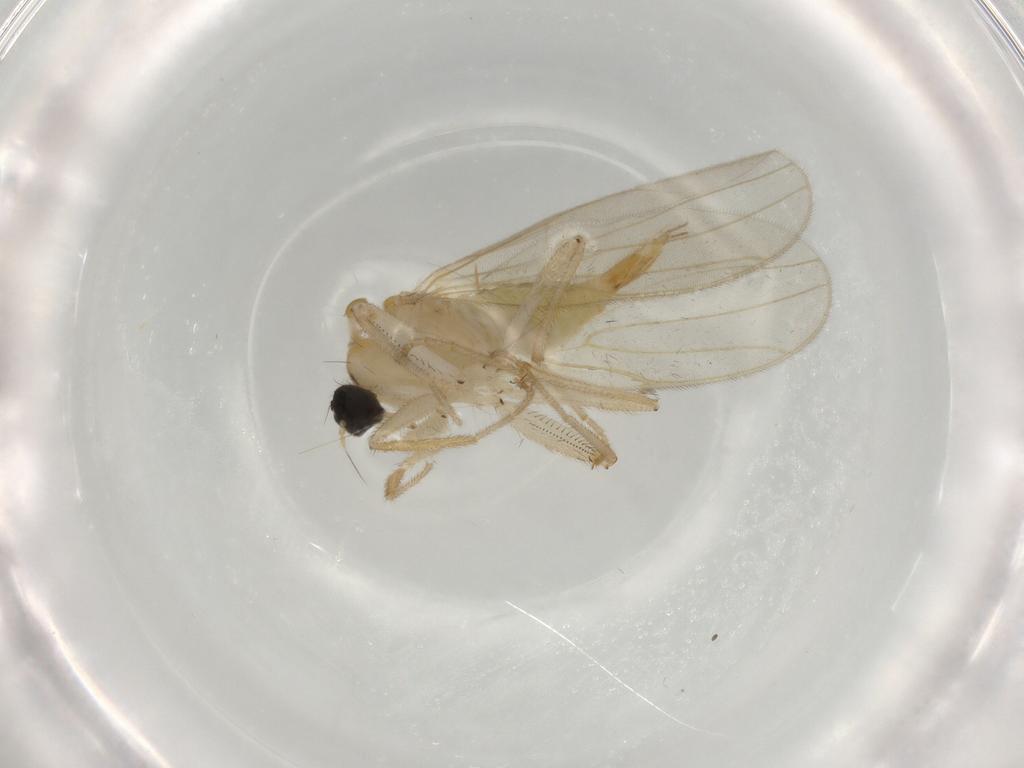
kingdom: Animalia
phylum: Arthropoda
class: Insecta
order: Diptera
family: Hybotidae
